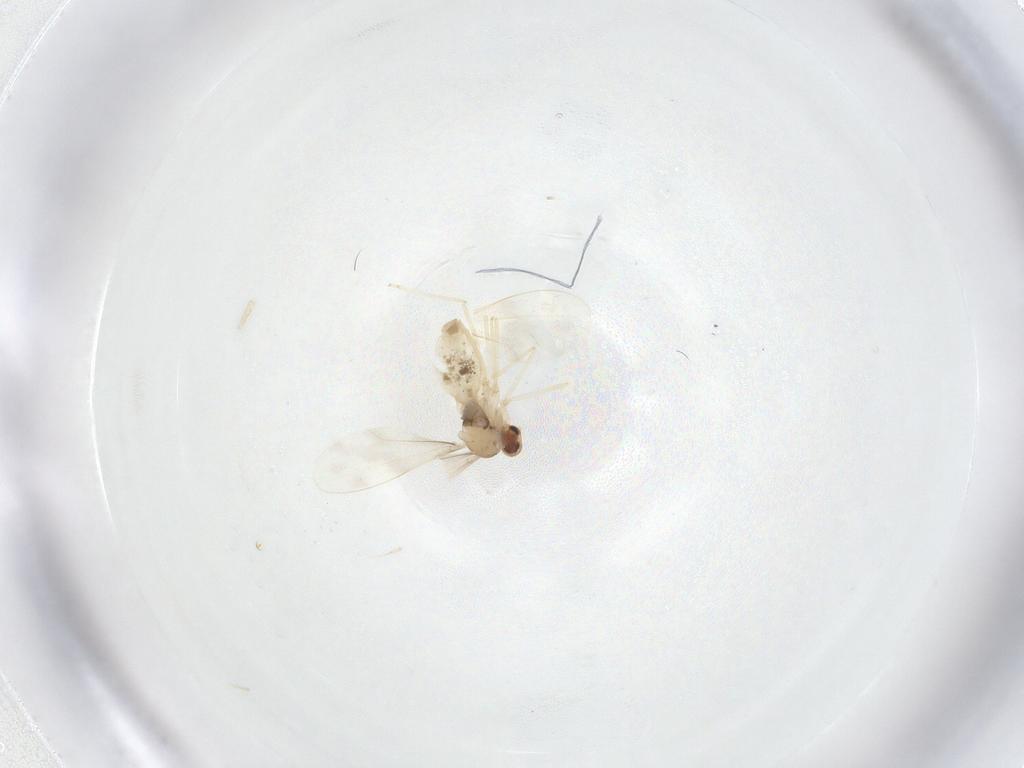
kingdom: Animalia
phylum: Arthropoda
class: Insecta
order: Diptera
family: Cecidomyiidae
